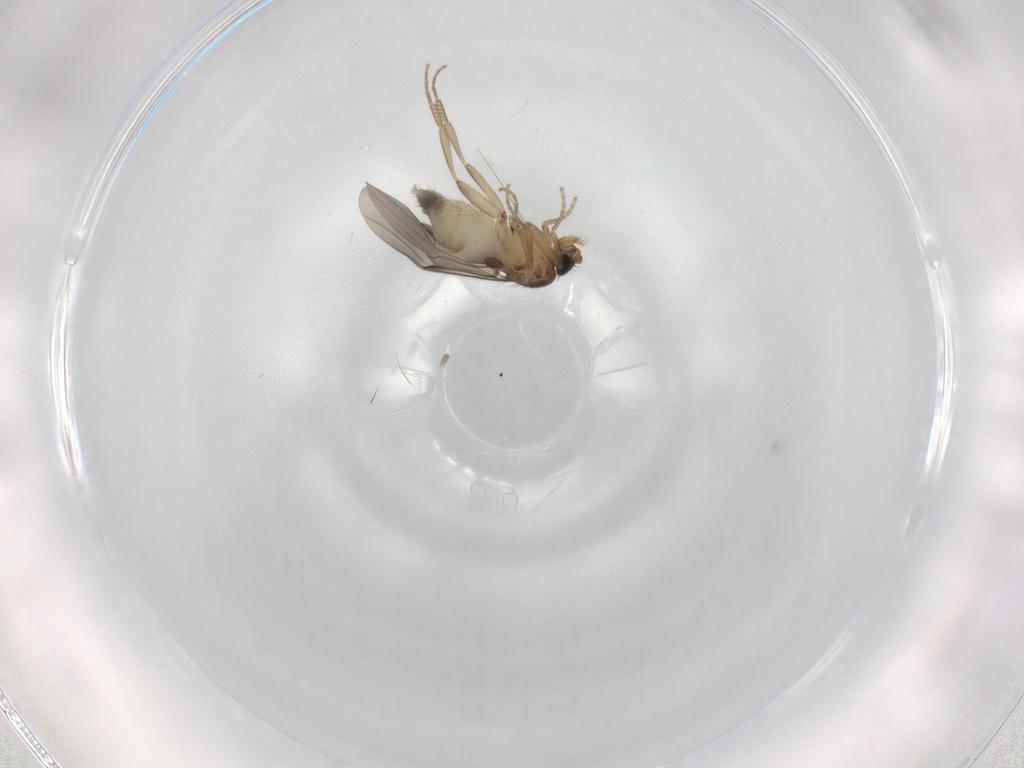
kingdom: Animalia
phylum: Arthropoda
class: Insecta
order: Diptera
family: Phoridae
